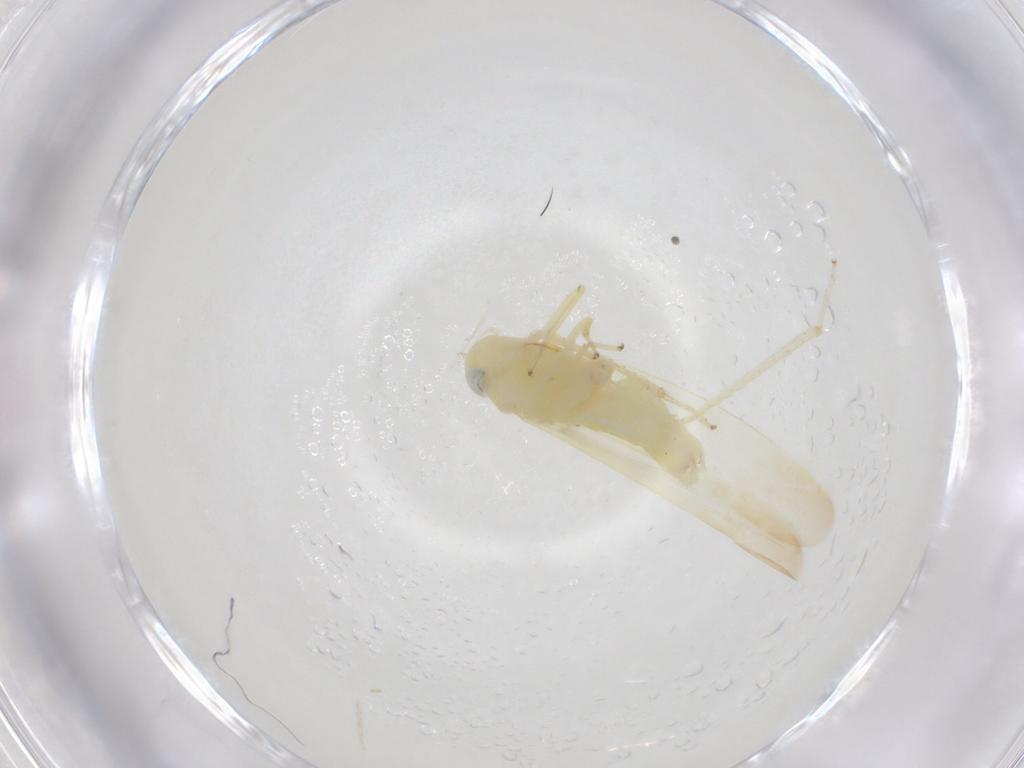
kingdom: Animalia
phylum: Arthropoda
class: Insecta
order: Hemiptera
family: Cicadellidae
